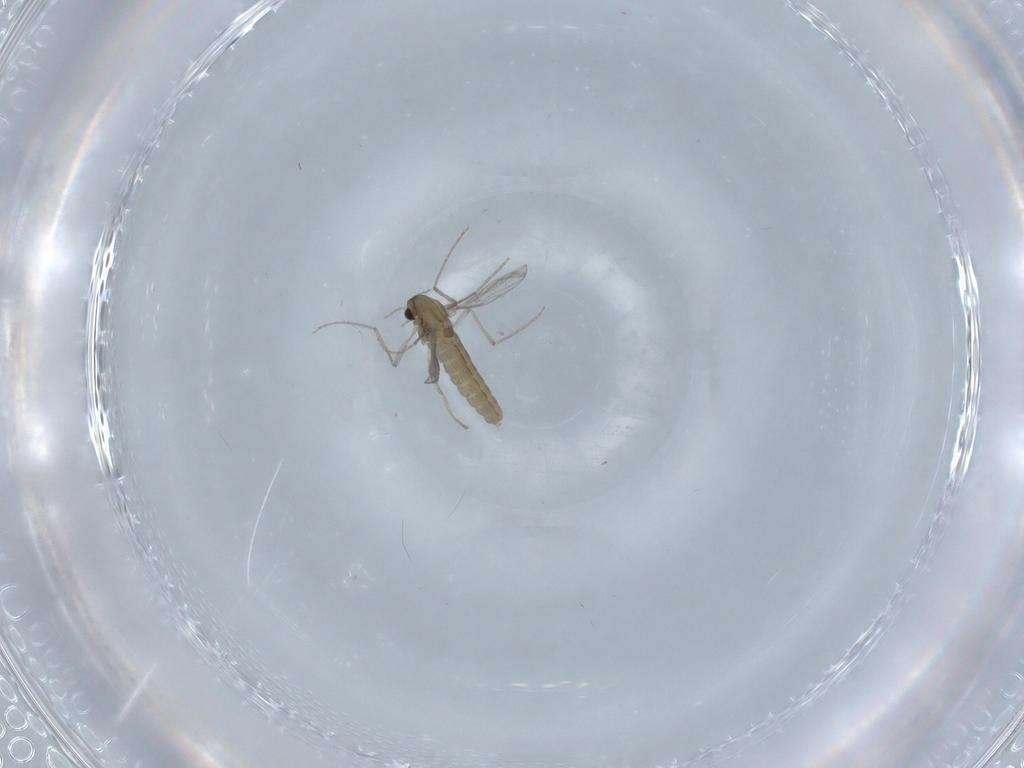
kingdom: Animalia
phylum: Arthropoda
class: Insecta
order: Diptera
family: Chironomidae
